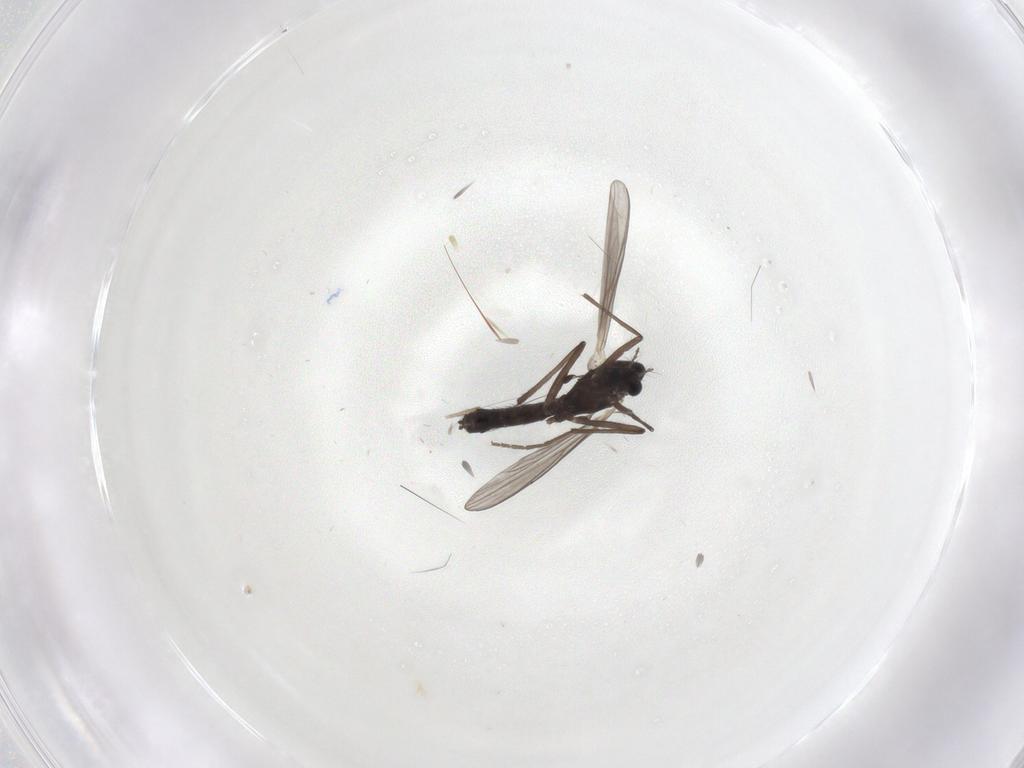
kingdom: Animalia
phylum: Arthropoda
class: Insecta
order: Diptera
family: Chironomidae
